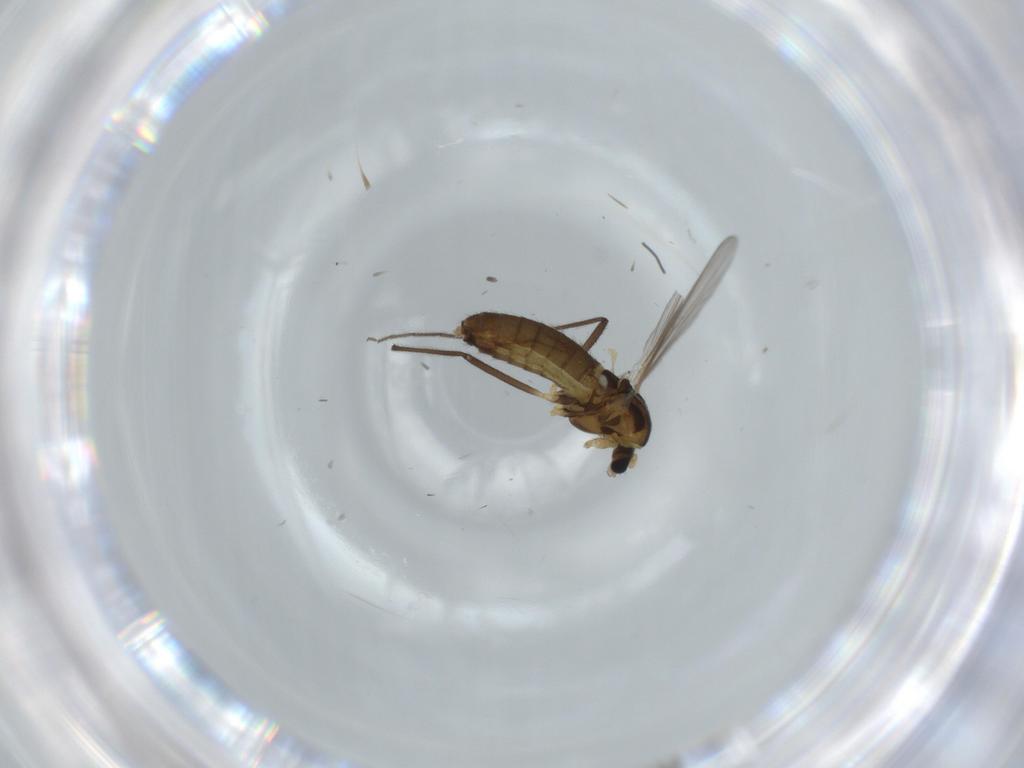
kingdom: Animalia
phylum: Arthropoda
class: Insecta
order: Diptera
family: Chironomidae
